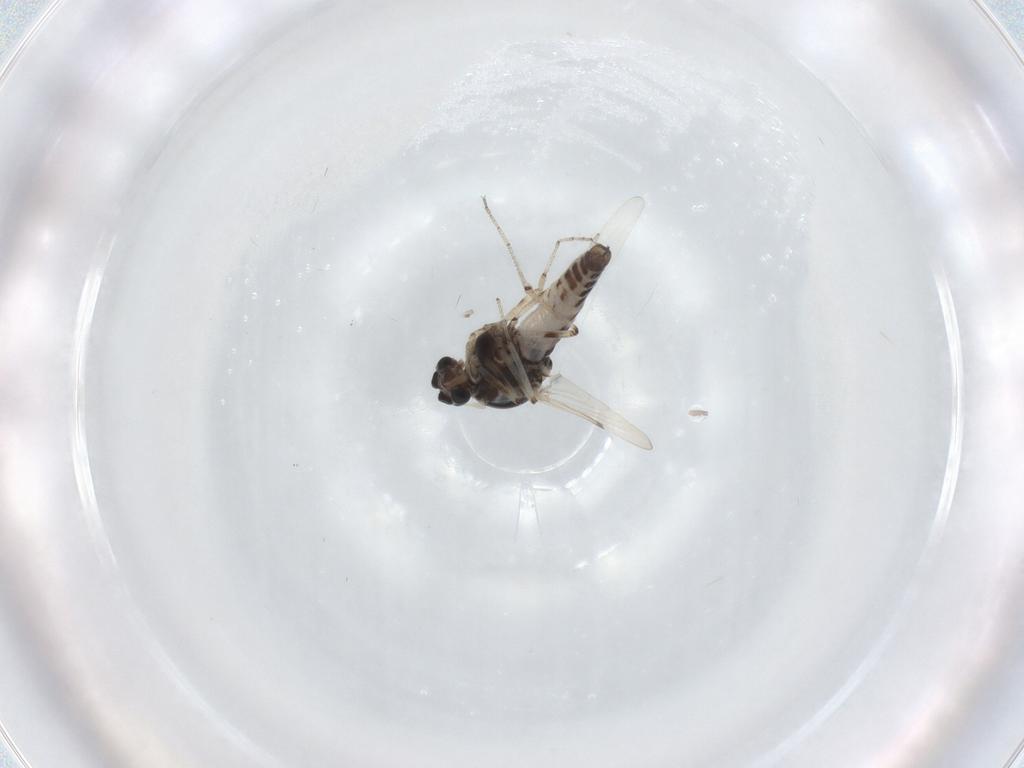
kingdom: Animalia
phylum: Arthropoda
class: Insecta
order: Diptera
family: Ceratopogonidae
